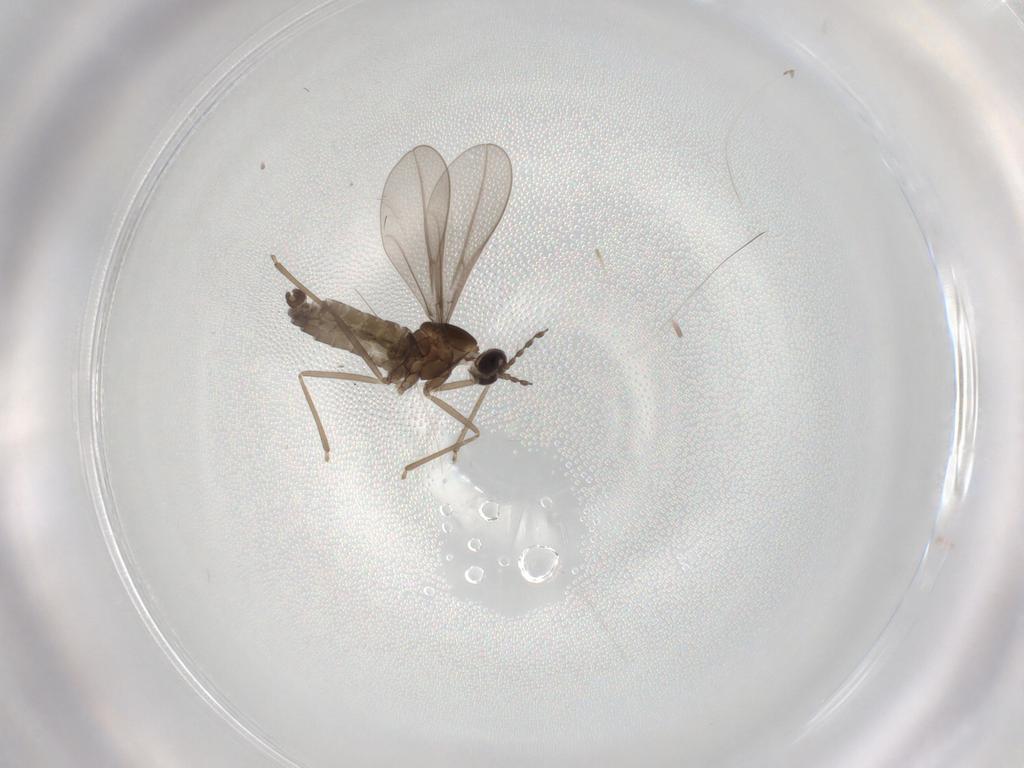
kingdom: Animalia
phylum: Arthropoda
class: Insecta
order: Diptera
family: Cecidomyiidae
